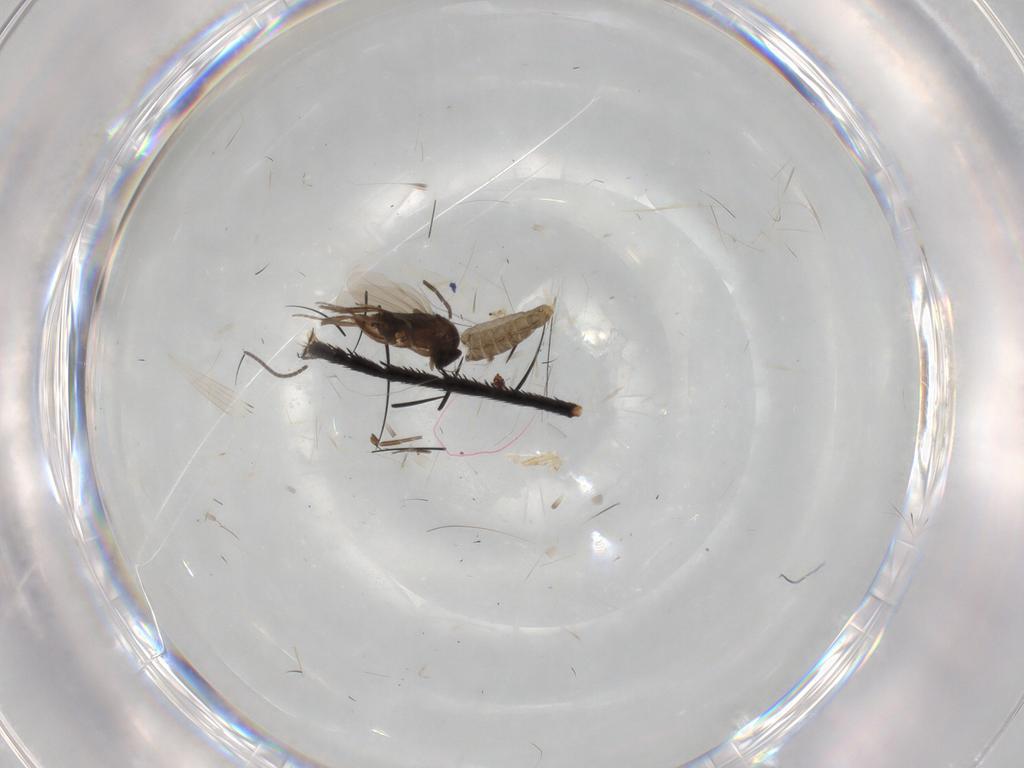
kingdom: Animalia
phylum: Arthropoda
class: Insecta
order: Diptera
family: Chironomidae
